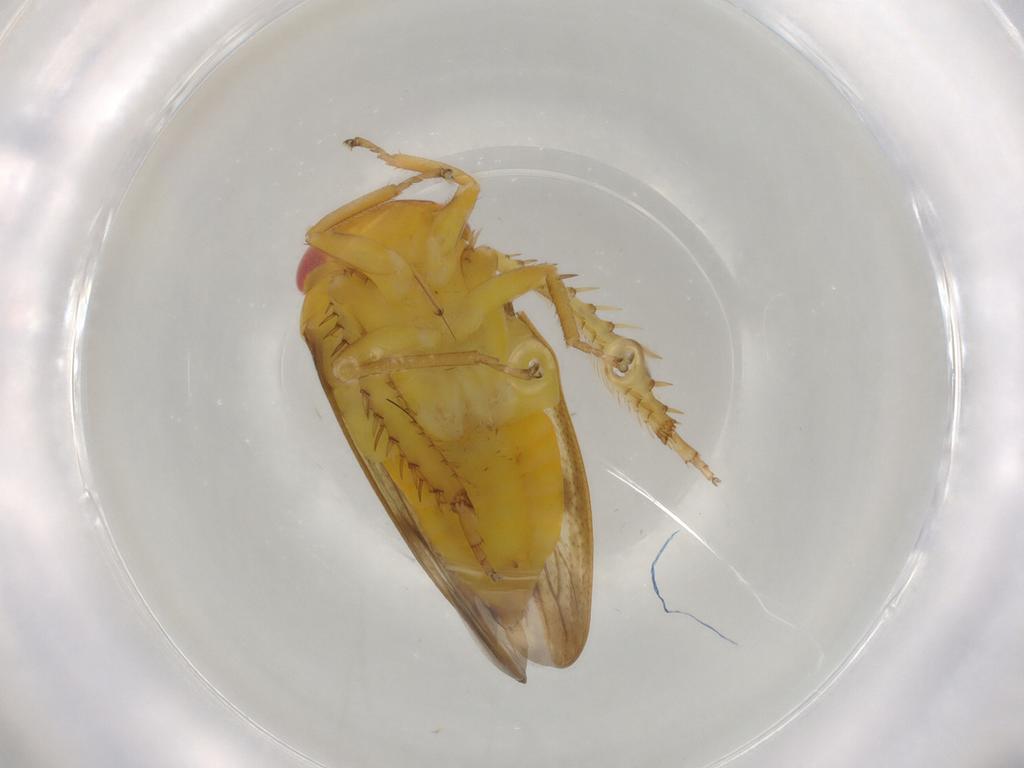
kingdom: Animalia
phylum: Arthropoda
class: Insecta
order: Hemiptera
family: Cicadellidae
